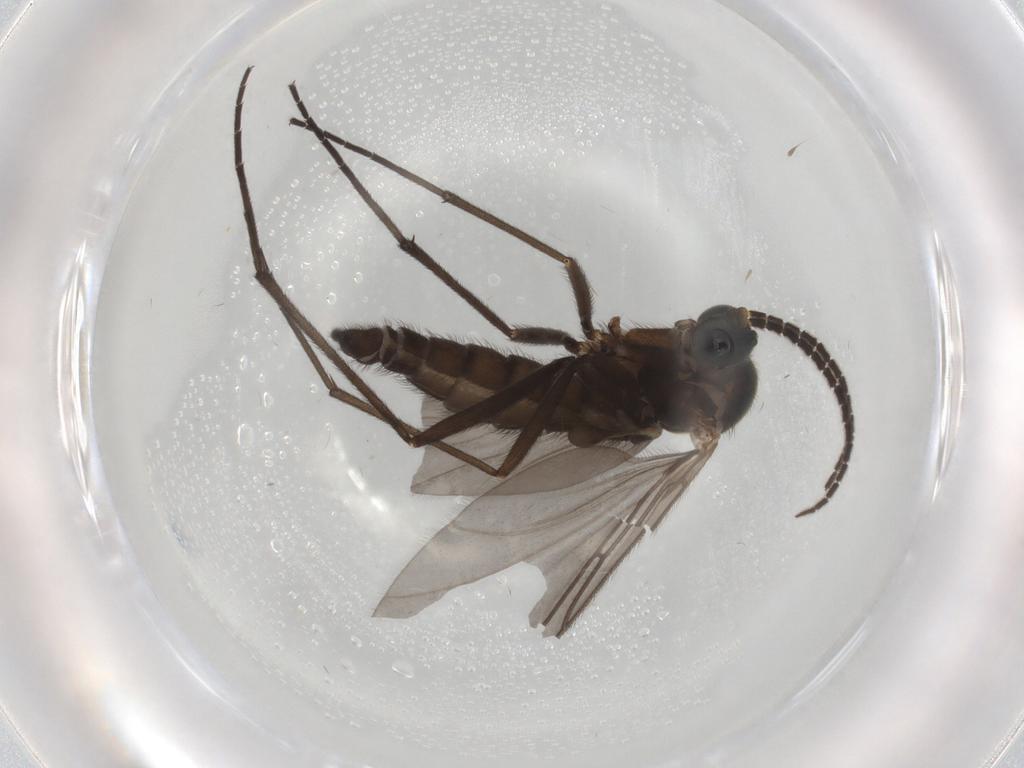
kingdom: Animalia
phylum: Arthropoda
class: Insecta
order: Diptera
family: Sciaridae
